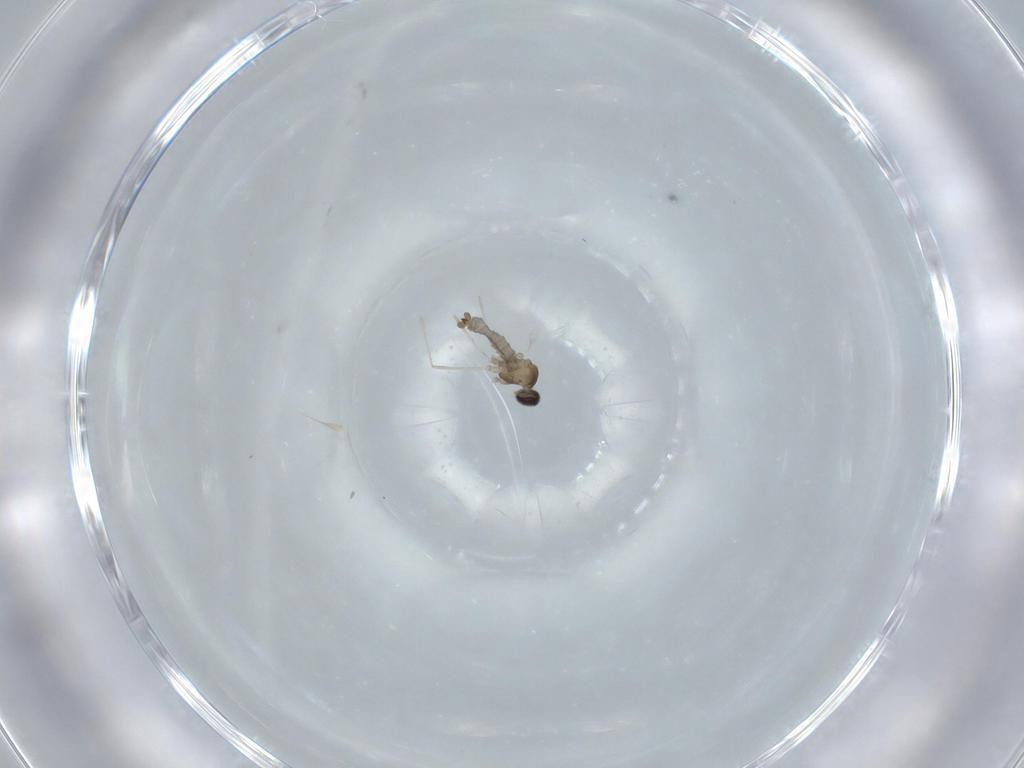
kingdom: Animalia
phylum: Arthropoda
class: Insecta
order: Diptera
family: Cecidomyiidae
